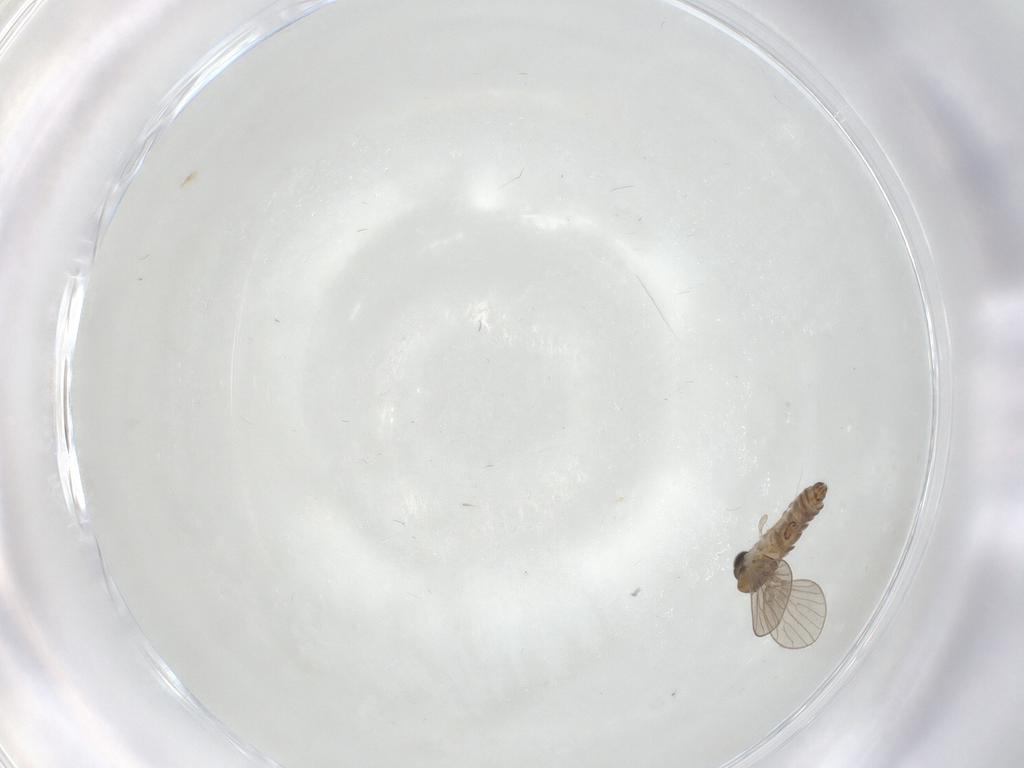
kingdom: Animalia
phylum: Arthropoda
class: Insecta
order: Diptera
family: Psychodidae
